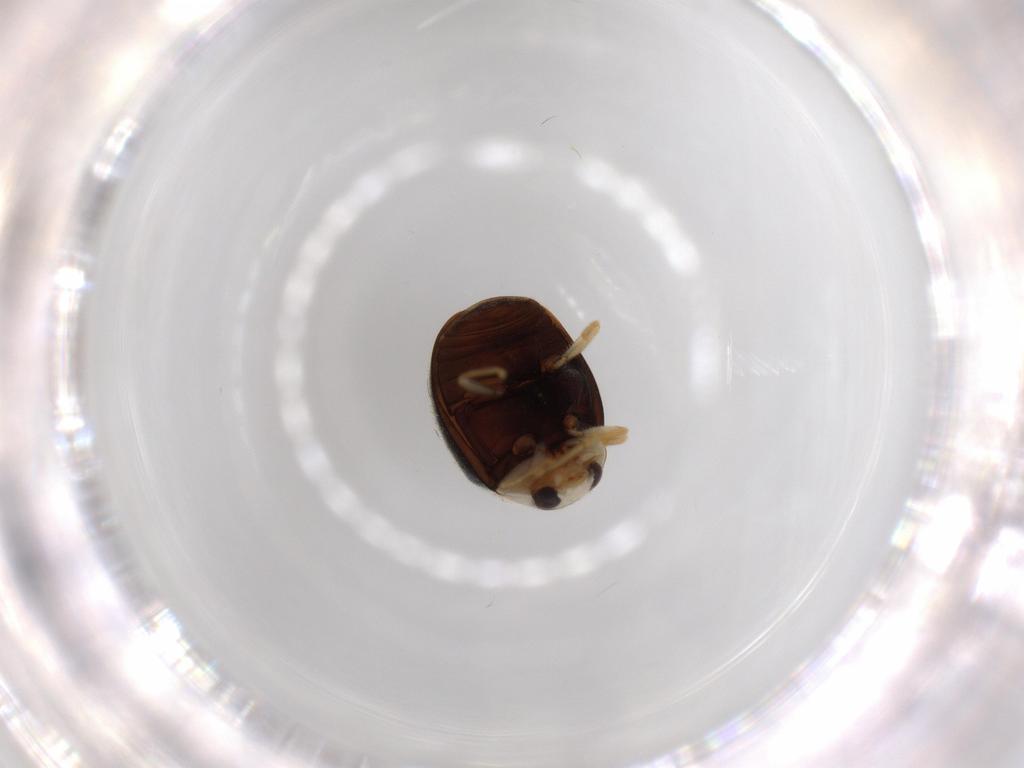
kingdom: Animalia
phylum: Arthropoda
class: Insecta
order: Coleoptera
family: Coccinellidae
